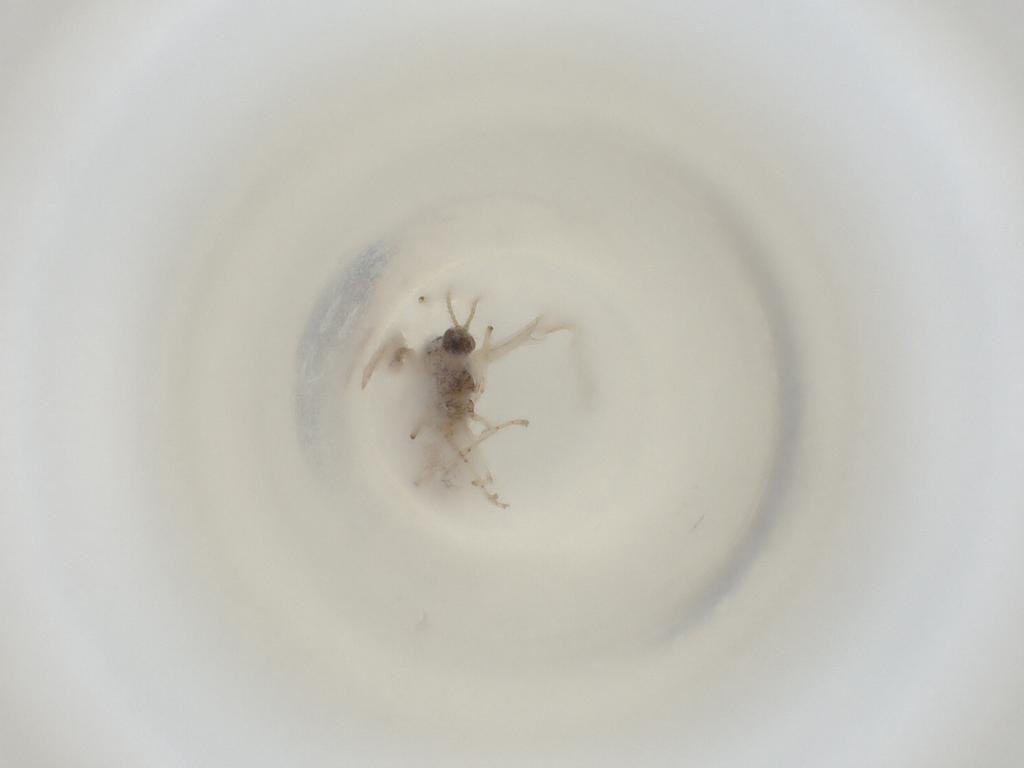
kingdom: Animalia
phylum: Arthropoda
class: Insecta
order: Diptera
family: Cecidomyiidae
